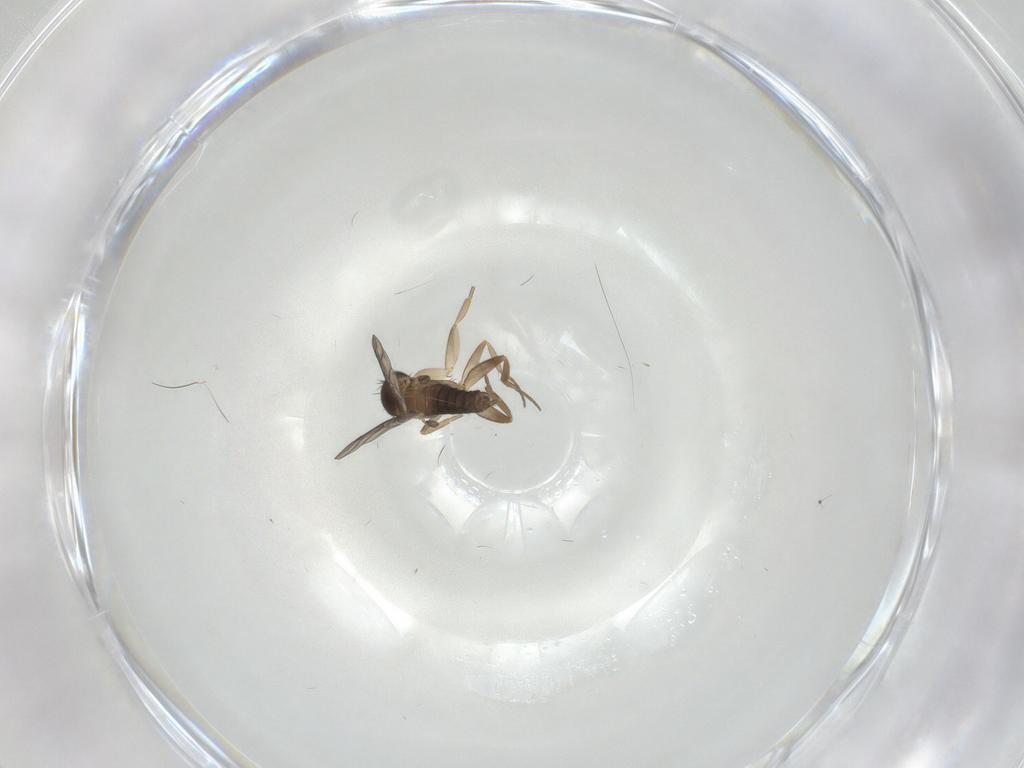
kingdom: Animalia
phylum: Arthropoda
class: Insecta
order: Diptera
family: Chironomidae
